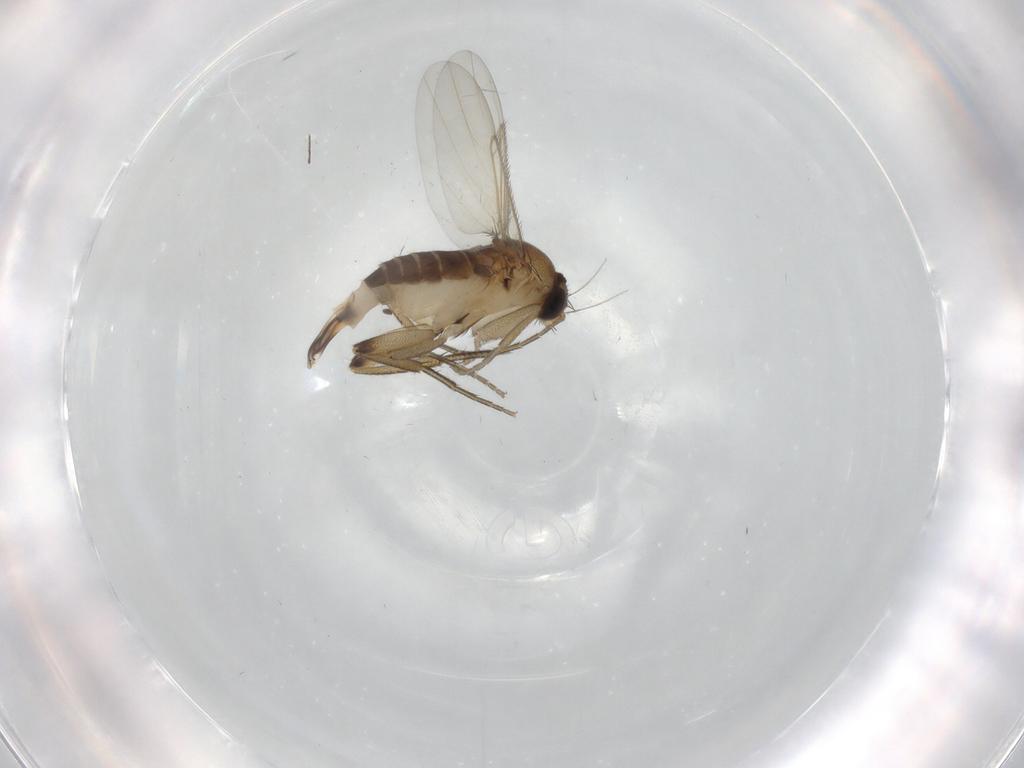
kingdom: Animalia
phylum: Arthropoda
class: Insecta
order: Diptera
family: Phoridae
